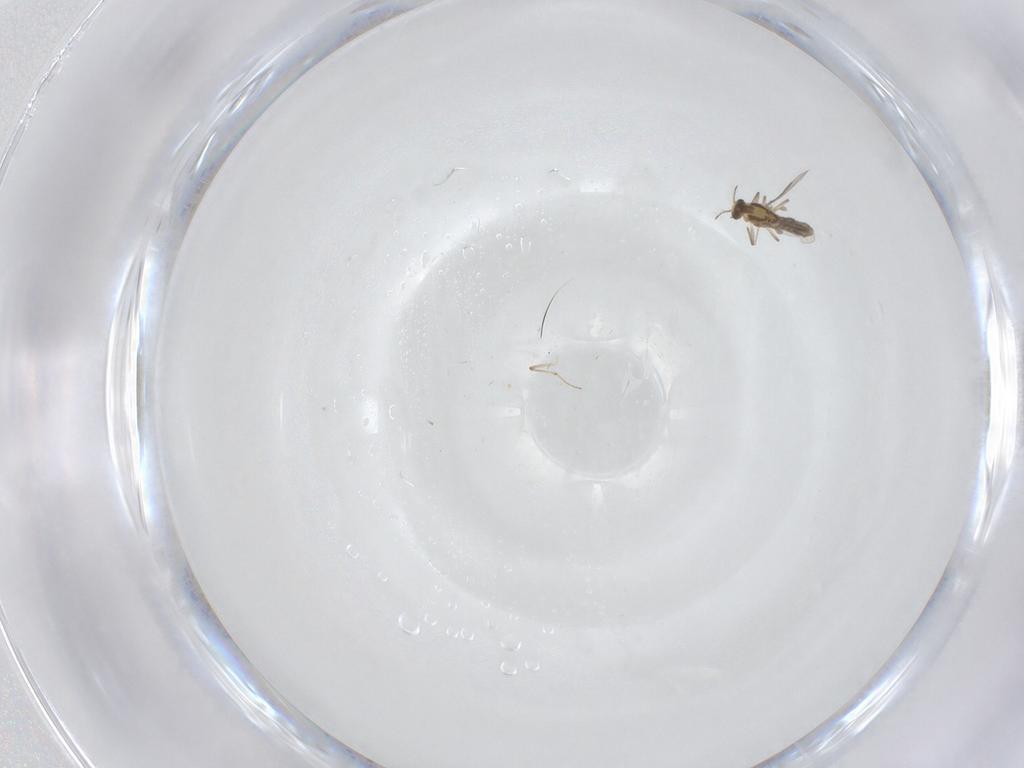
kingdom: Animalia
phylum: Arthropoda
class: Insecta
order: Diptera
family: Chironomidae
